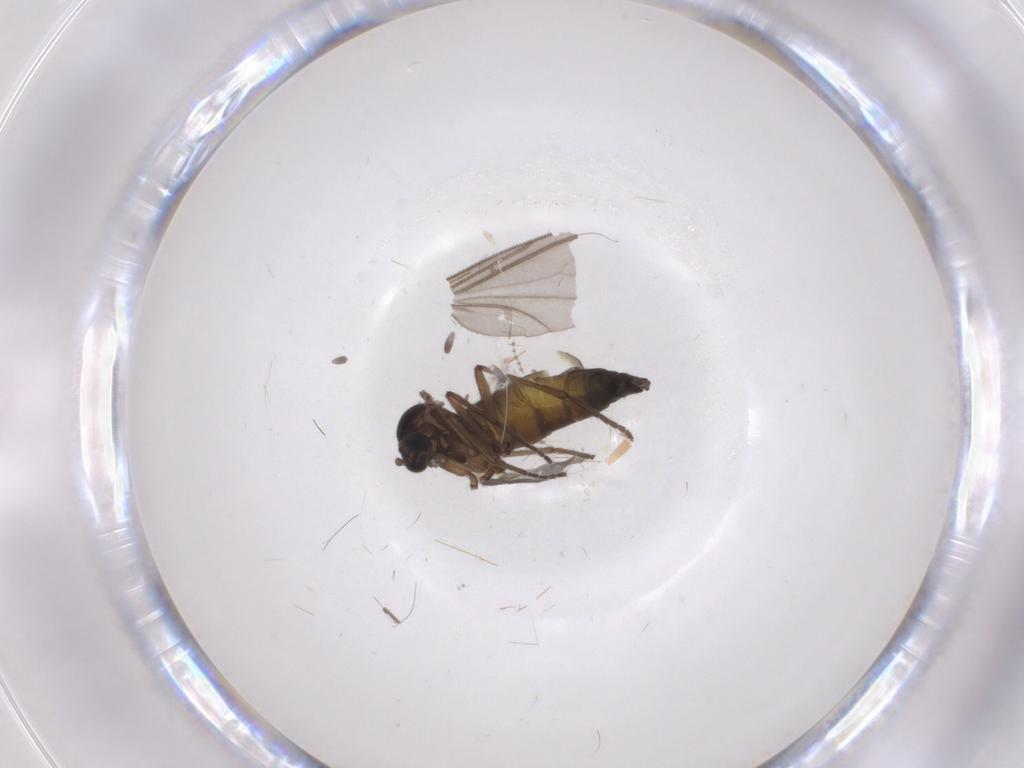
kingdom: Animalia
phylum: Arthropoda
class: Insecta
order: Diptera
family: Sciaridae
